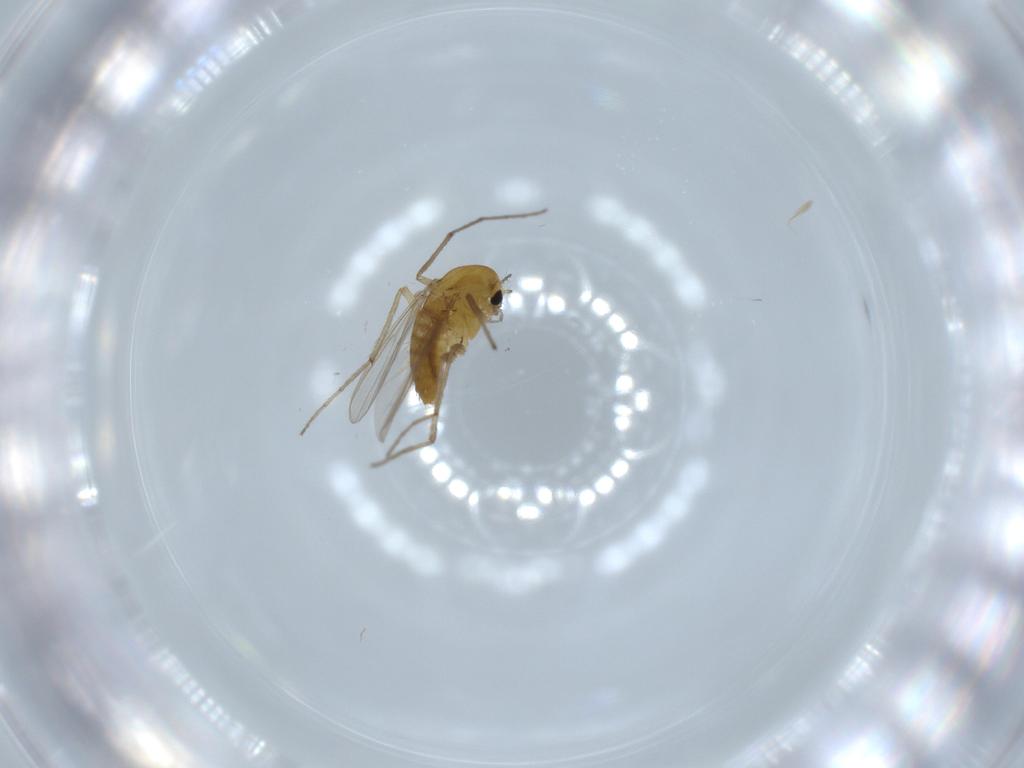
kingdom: Animalia
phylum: Arthropoda
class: Insecta
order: Diptera
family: Chironomidae
